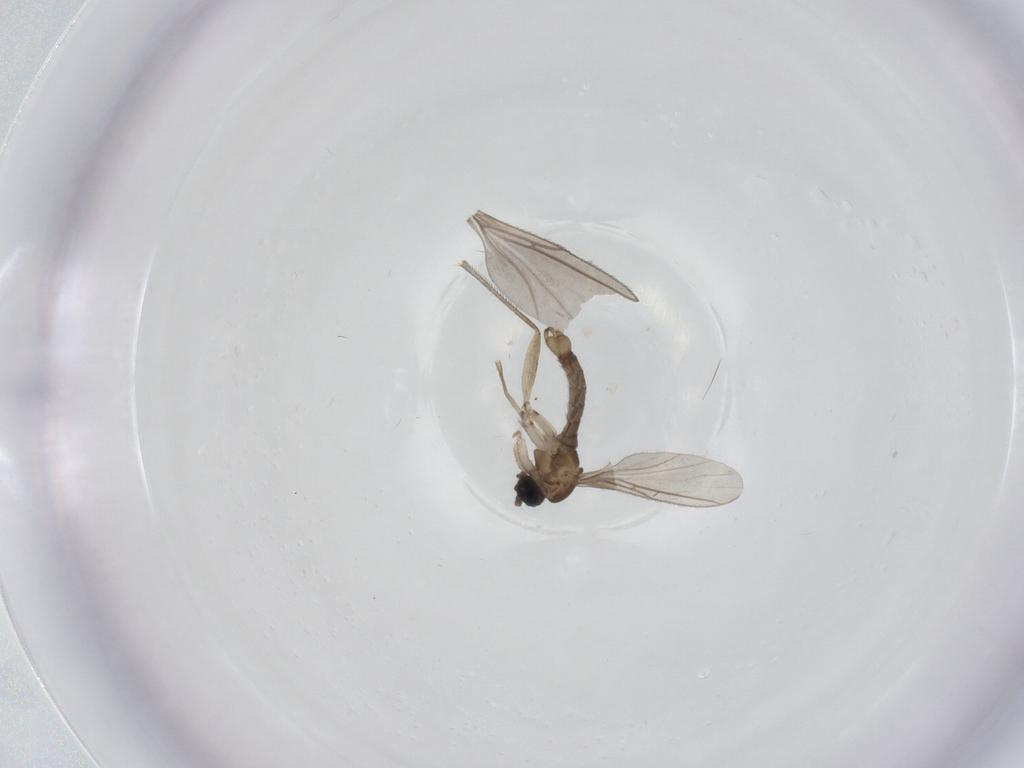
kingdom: Animalia
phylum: Arthropoda
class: Insecta
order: Diptera
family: Sciaridae
